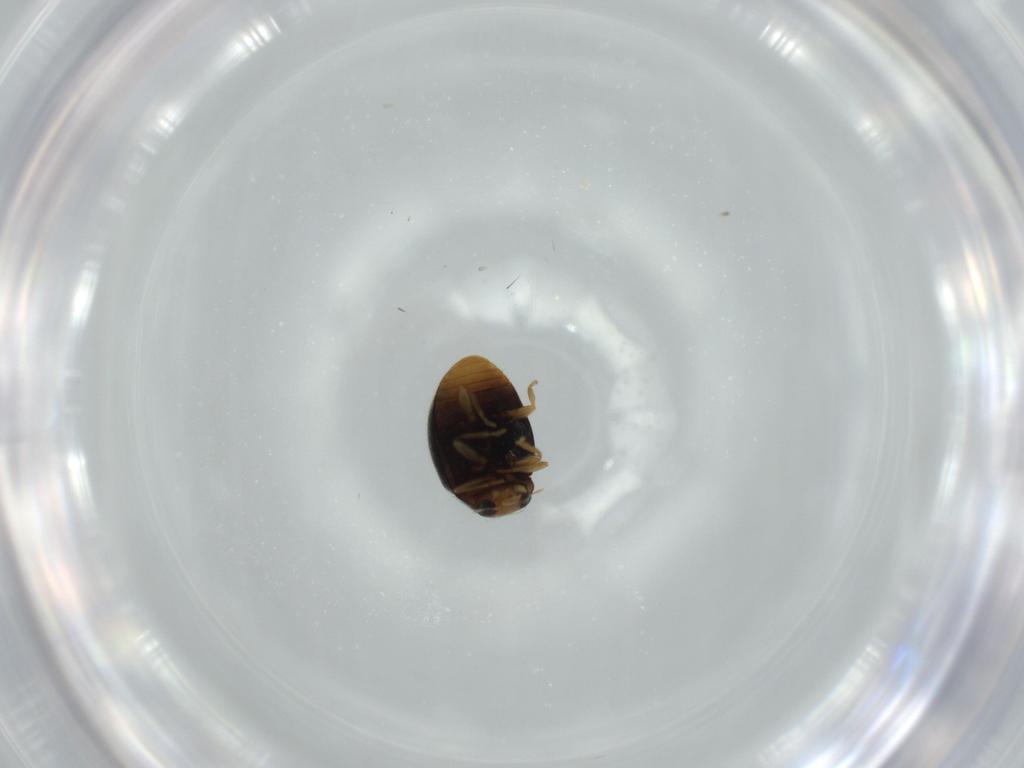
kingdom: Animalia
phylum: Arthropoda
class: Insecta
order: Coleoptera
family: Coccinellidae
